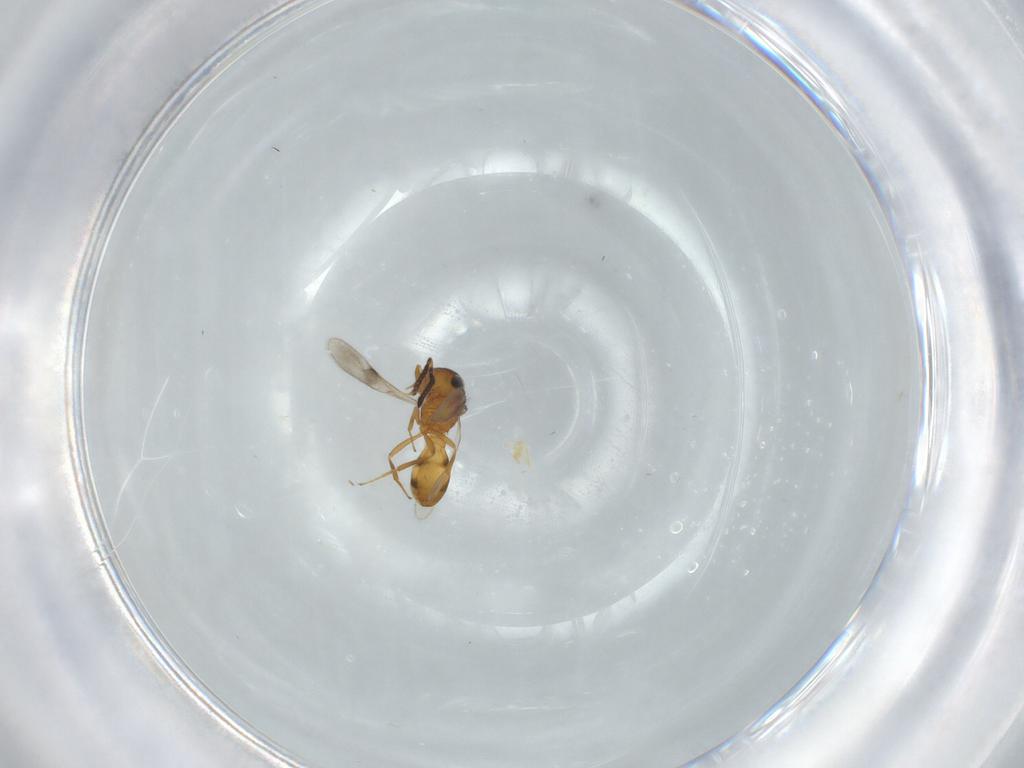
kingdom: Animalia
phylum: Arthropoda
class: Insecta
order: Hymenoptera
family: Scelionidae
